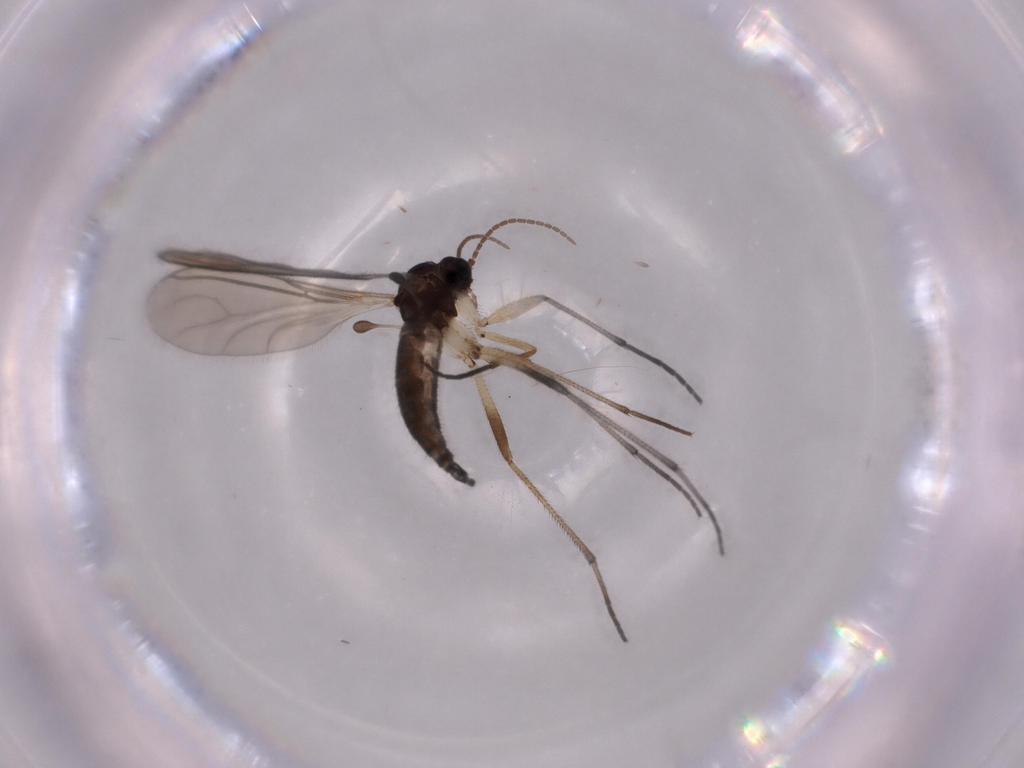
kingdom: Animalia
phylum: Arthropoda
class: Insecta
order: Diptera
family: Sciaridae
